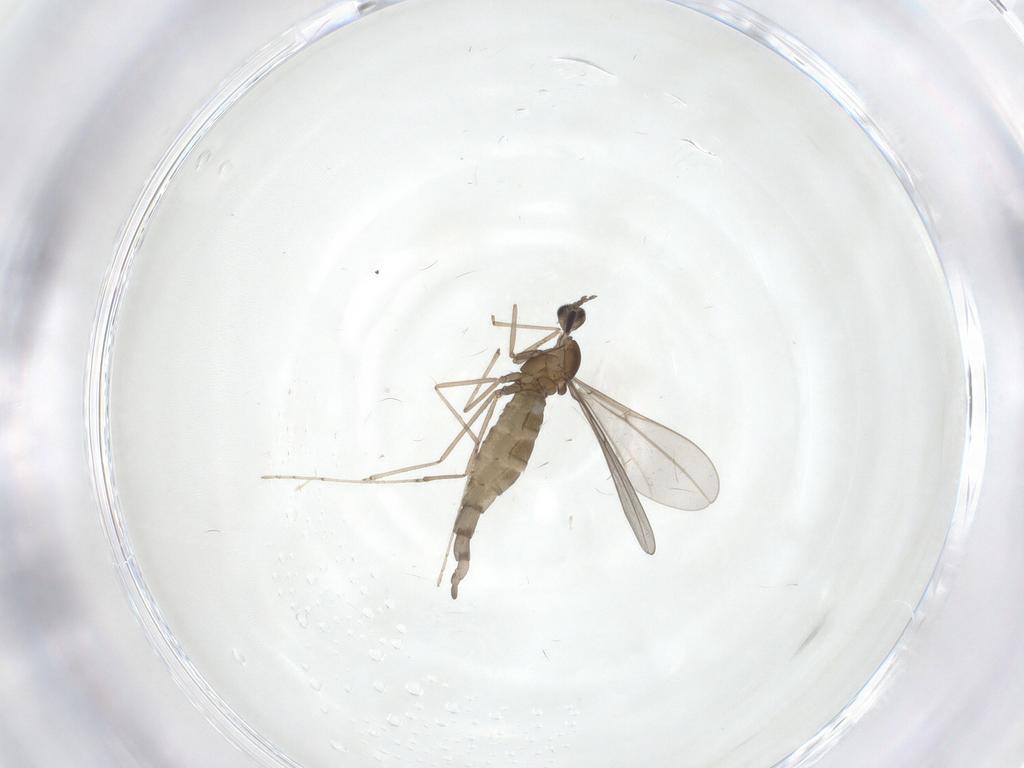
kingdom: Animalia
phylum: Arthropoda
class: Insecta
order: Diptera
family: Cecidomyiidae
